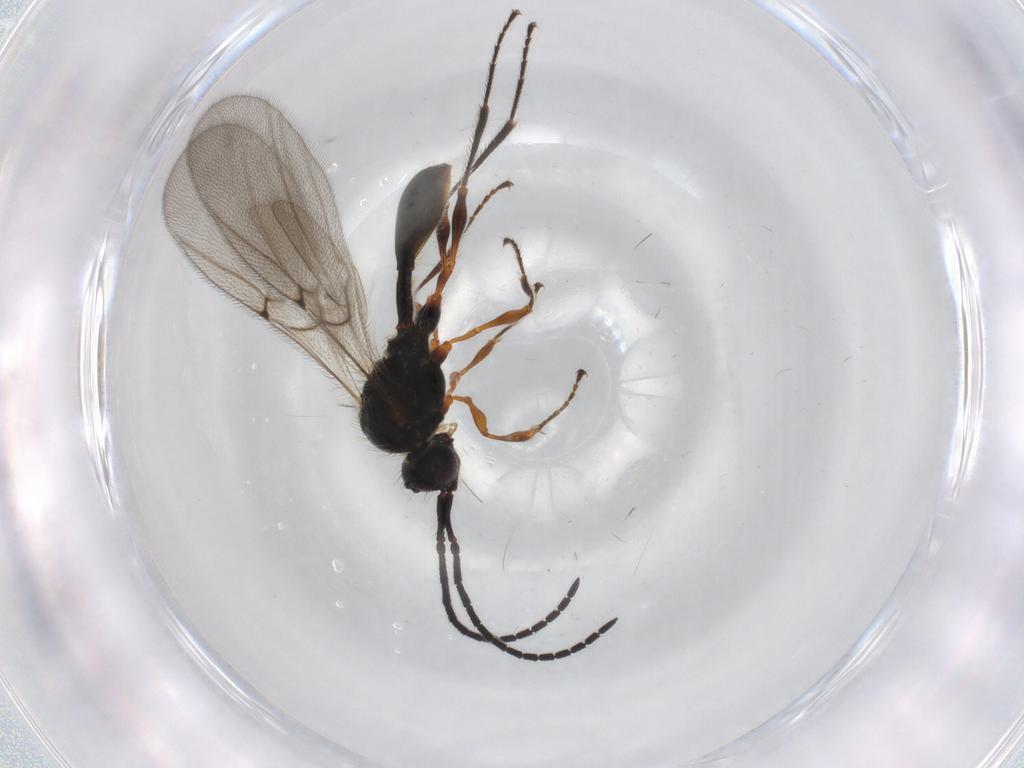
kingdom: Animalia
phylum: Arthropoda
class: Insecta
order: Hymenoptera
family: Diapriidae
